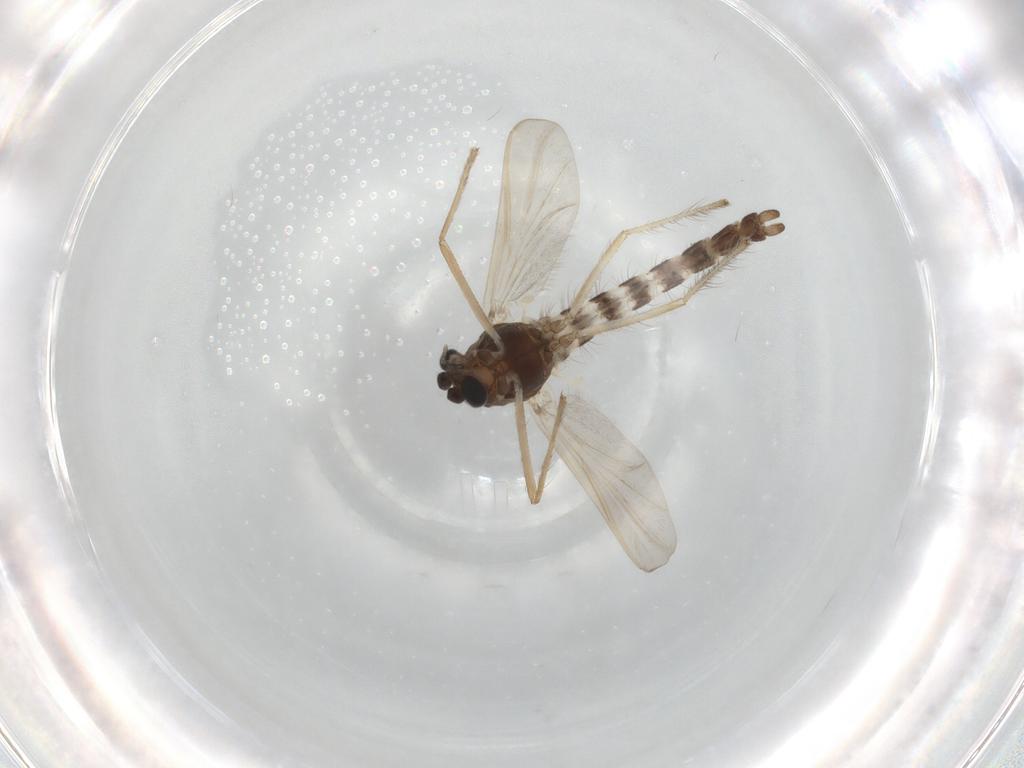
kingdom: Animalia
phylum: Arthropoda
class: Insecta
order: Diptera
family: Chironomidae
